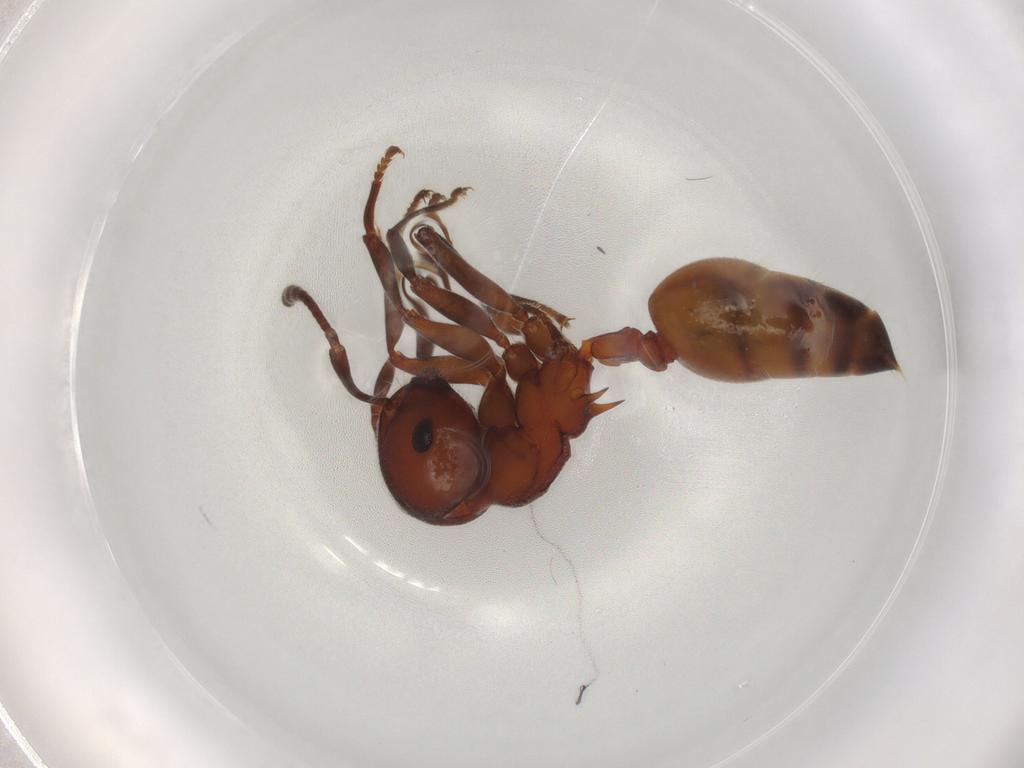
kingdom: Animalia
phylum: Arthropoda
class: Insecta
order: Hymenoptera
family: Formicidae
